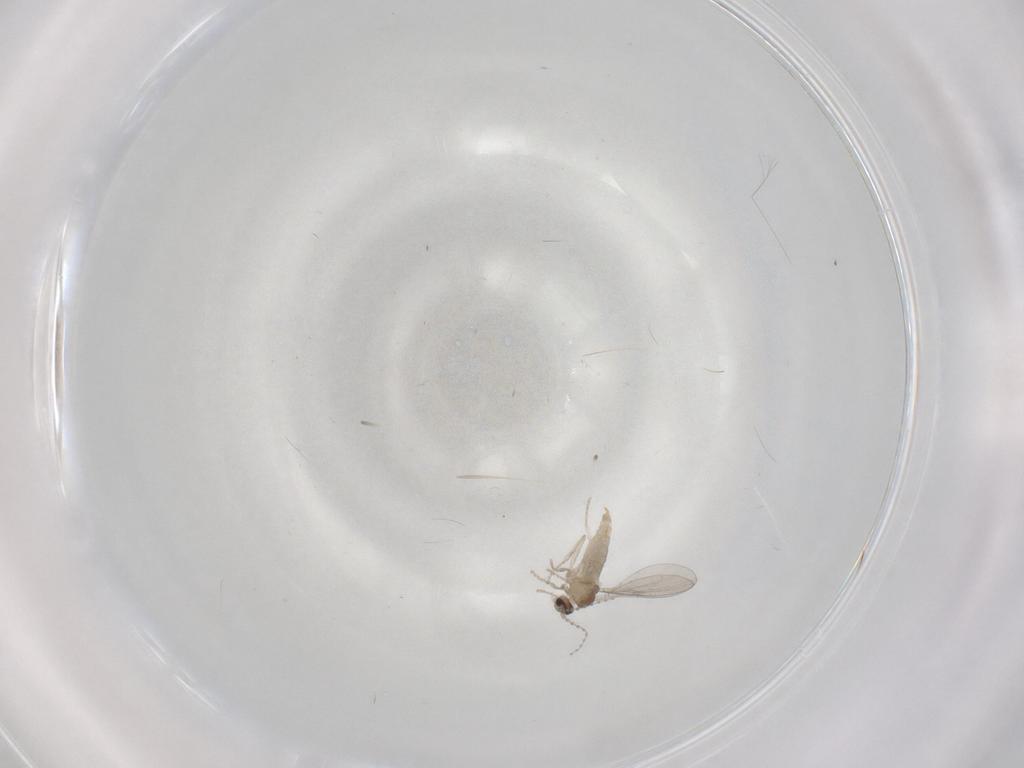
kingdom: Animalia
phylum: Arthropoda
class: Insecta
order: Diptera
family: Cecidomyiidae
